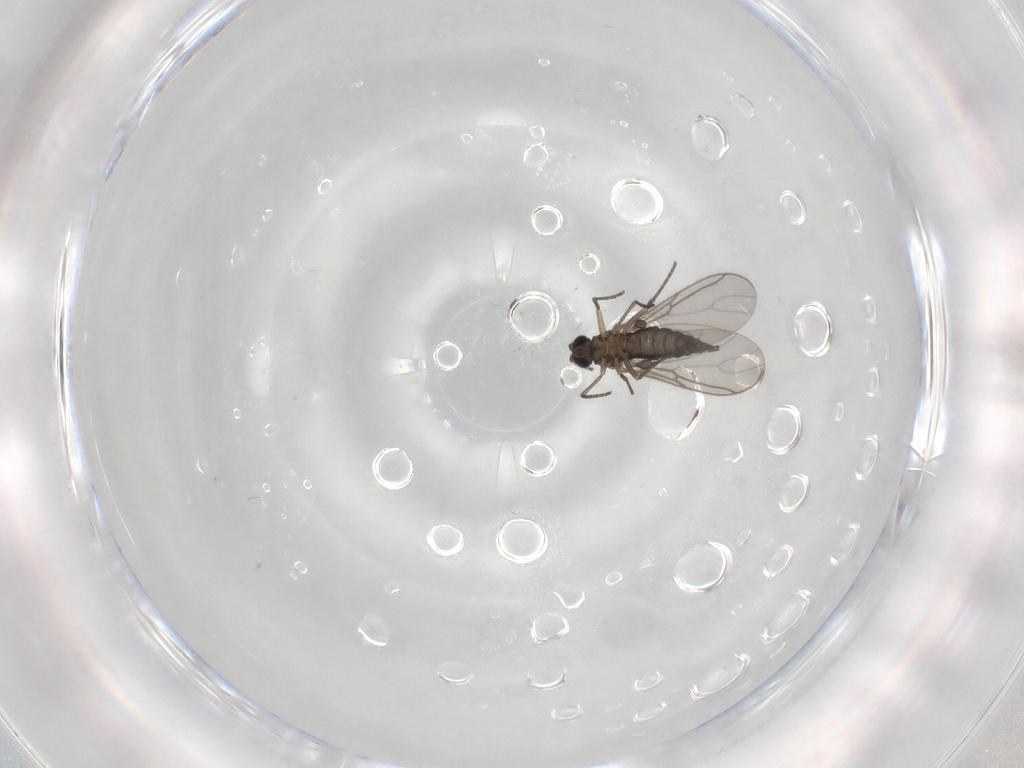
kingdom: Animalia
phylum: Arthropoda
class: Insecta
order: Diptera
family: Sciaridae
